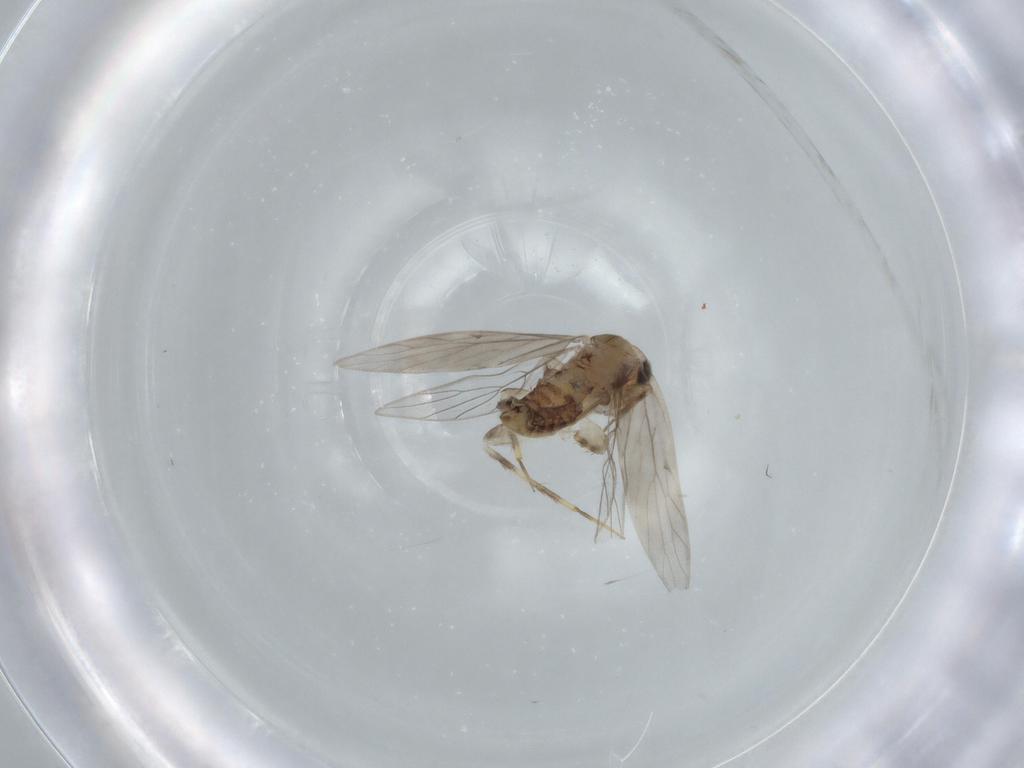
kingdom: Animalia
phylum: Arthropoda
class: Insecta
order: Psocodea
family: Lepidopsocidae
